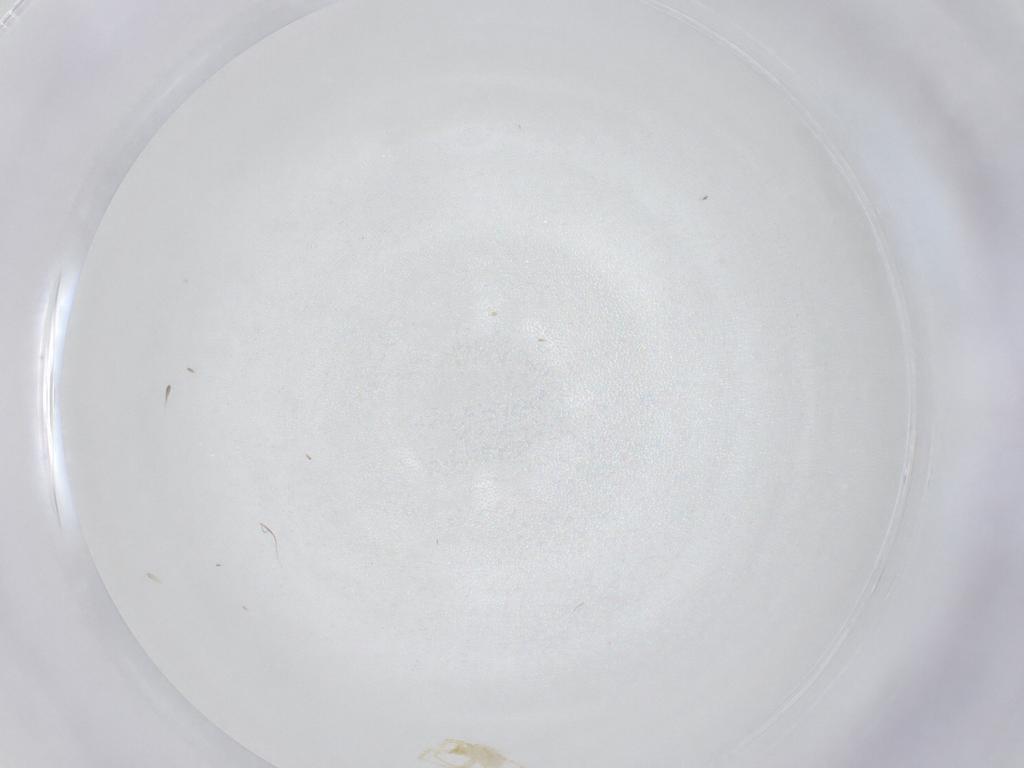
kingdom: Animalia
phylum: Arthropoda
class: Arachnida
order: Trombidiformes
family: Erythraeidae
